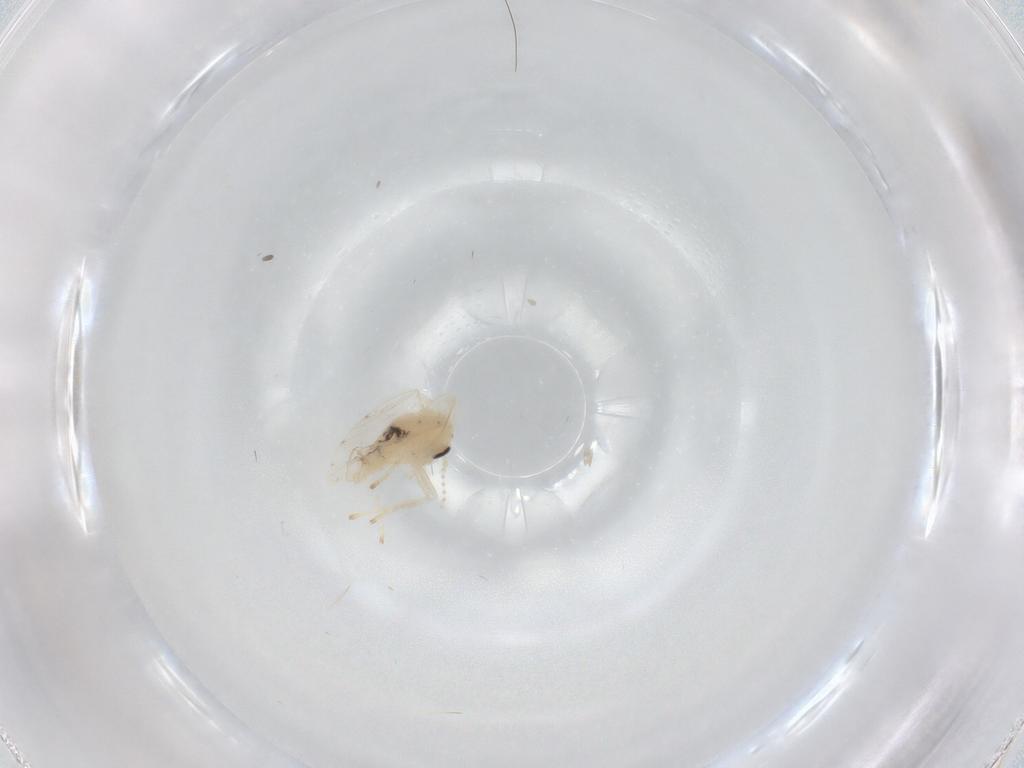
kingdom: Animalia
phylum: Arthropoda
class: Insecta
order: Diptera
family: Psychodidae
